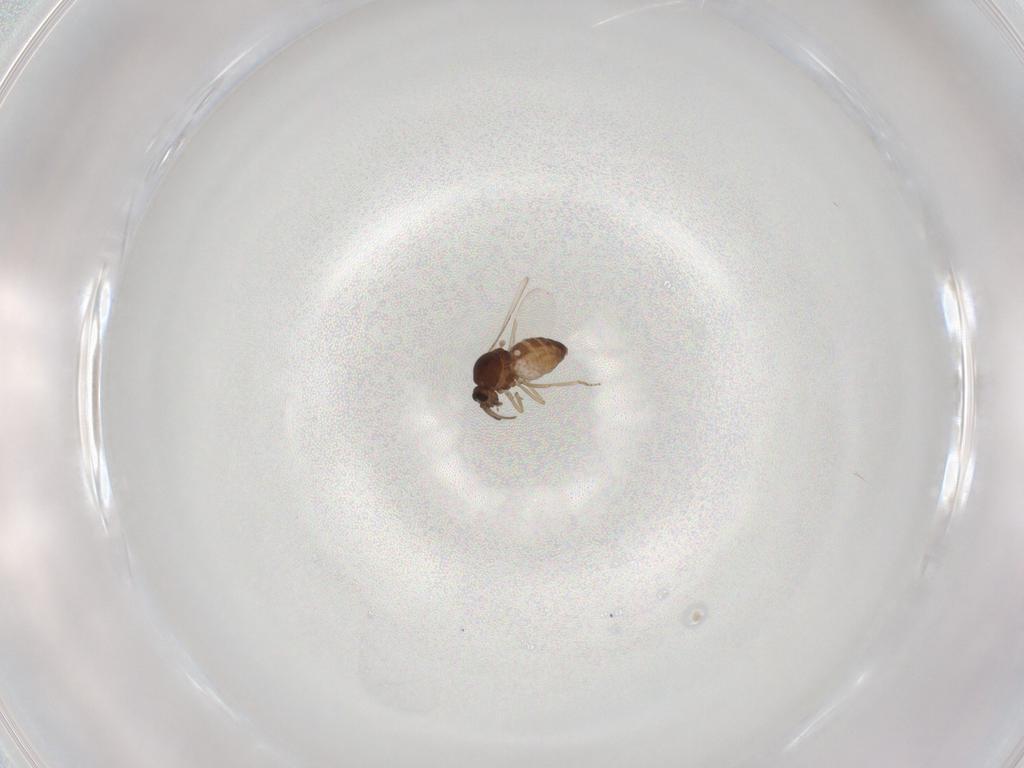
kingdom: Animalia
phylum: Arthropoda
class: Insecta
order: Diptera
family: Ceratopogonidae
